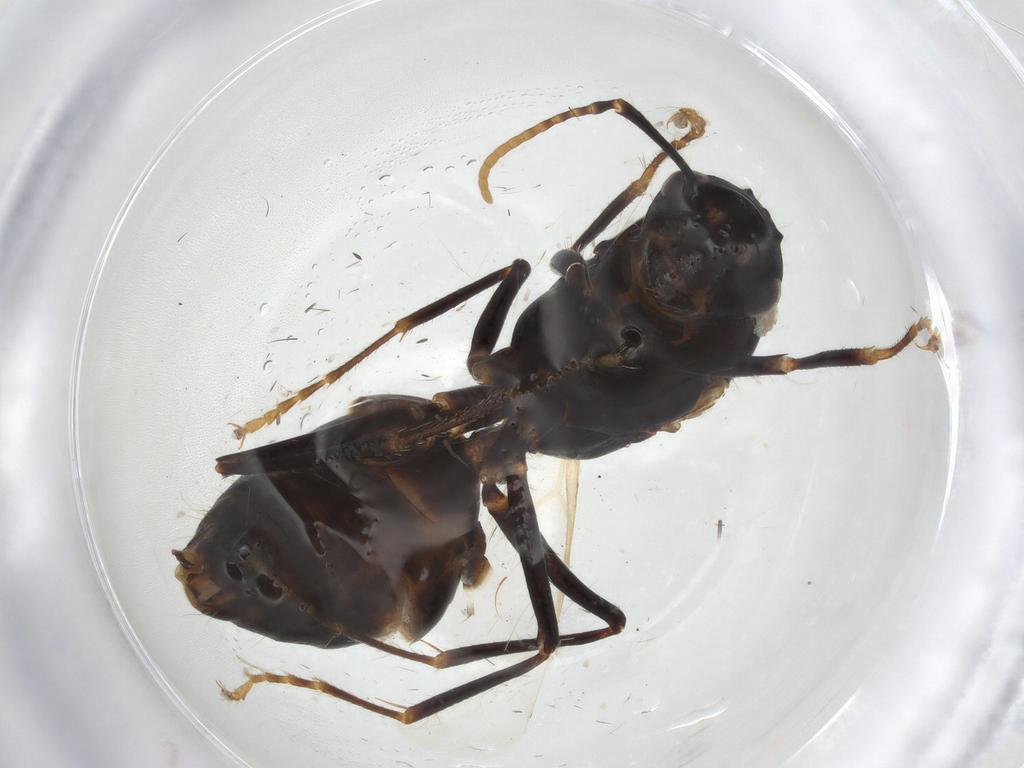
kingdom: Animalia
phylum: Arthropoda
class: Insecta
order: Hymenoptera
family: Formicidae
